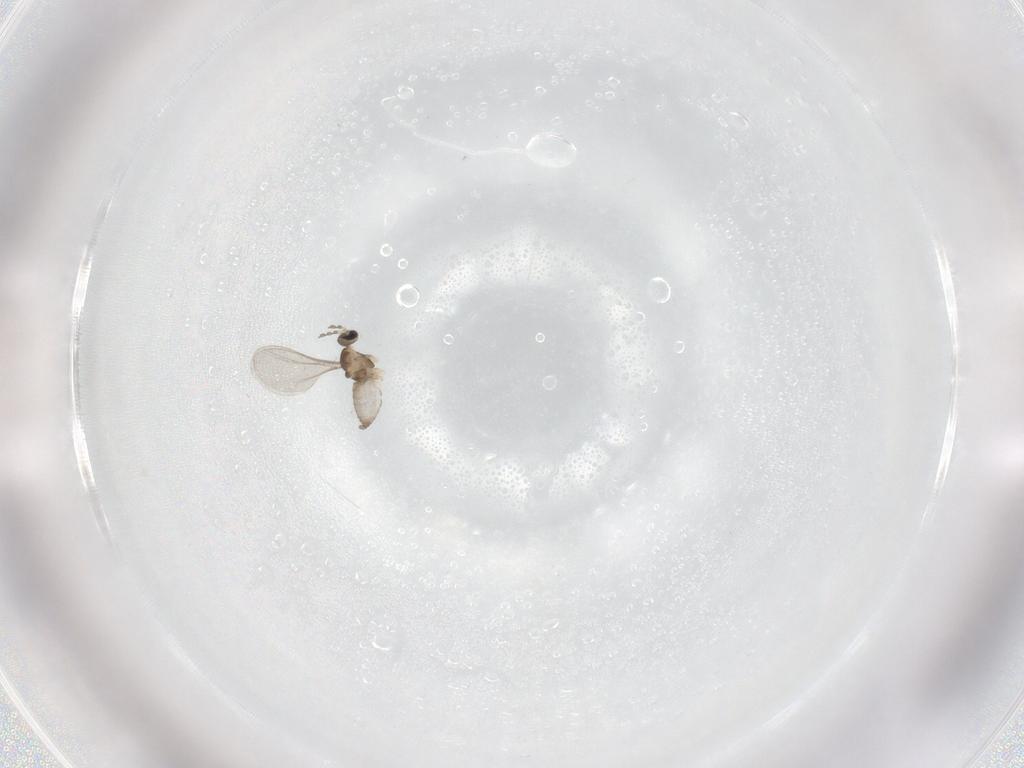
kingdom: Animalia
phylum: Arthropoda
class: Insecta
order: Diptera
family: Cecidomyiidae
